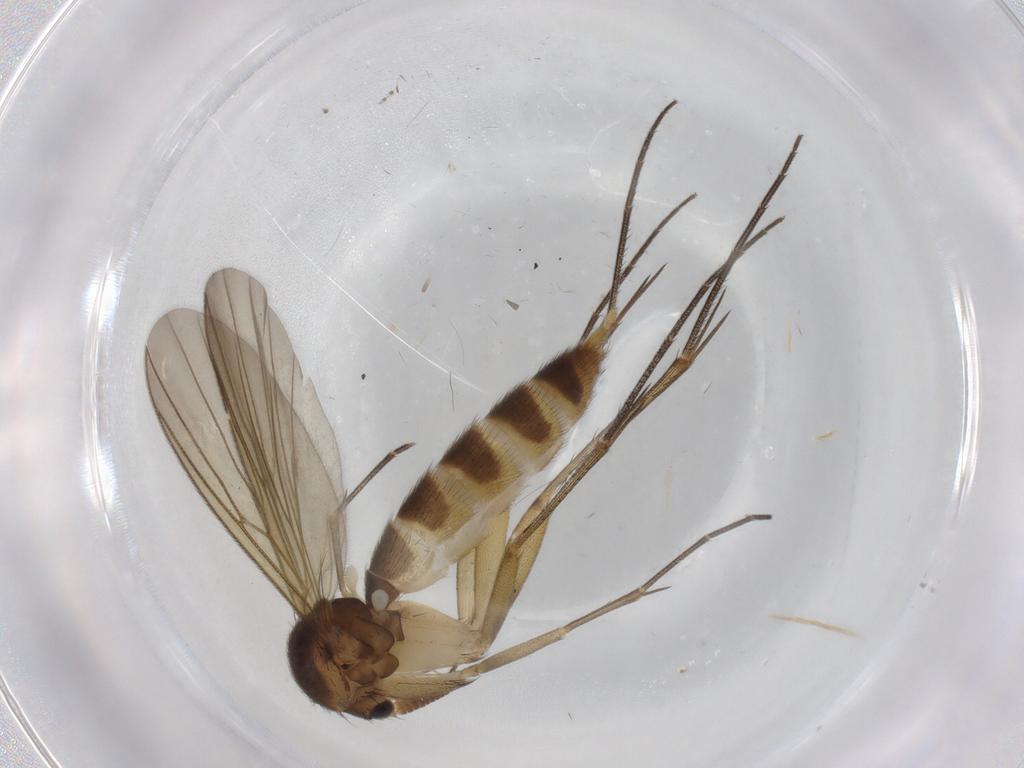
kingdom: Animalia
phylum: Arthropoda
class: Insecta
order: Diptera
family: Mycetophilidae
